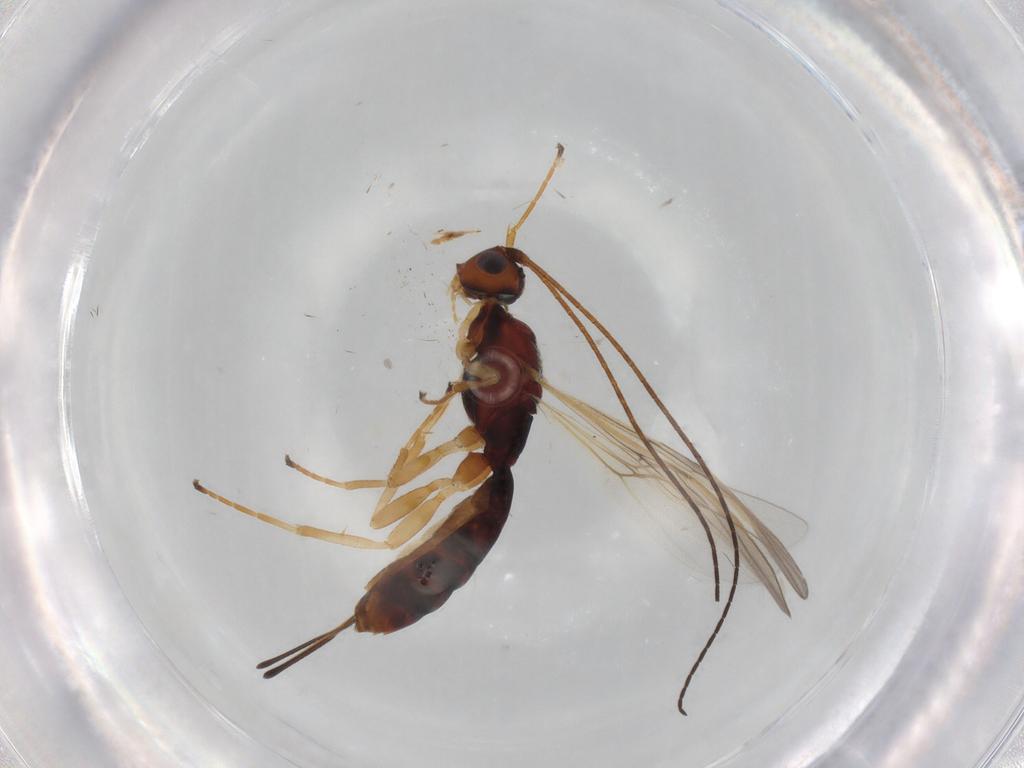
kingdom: Animalia
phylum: Arthropoda
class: Insecta
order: Hymenoptera
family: Braconidae
